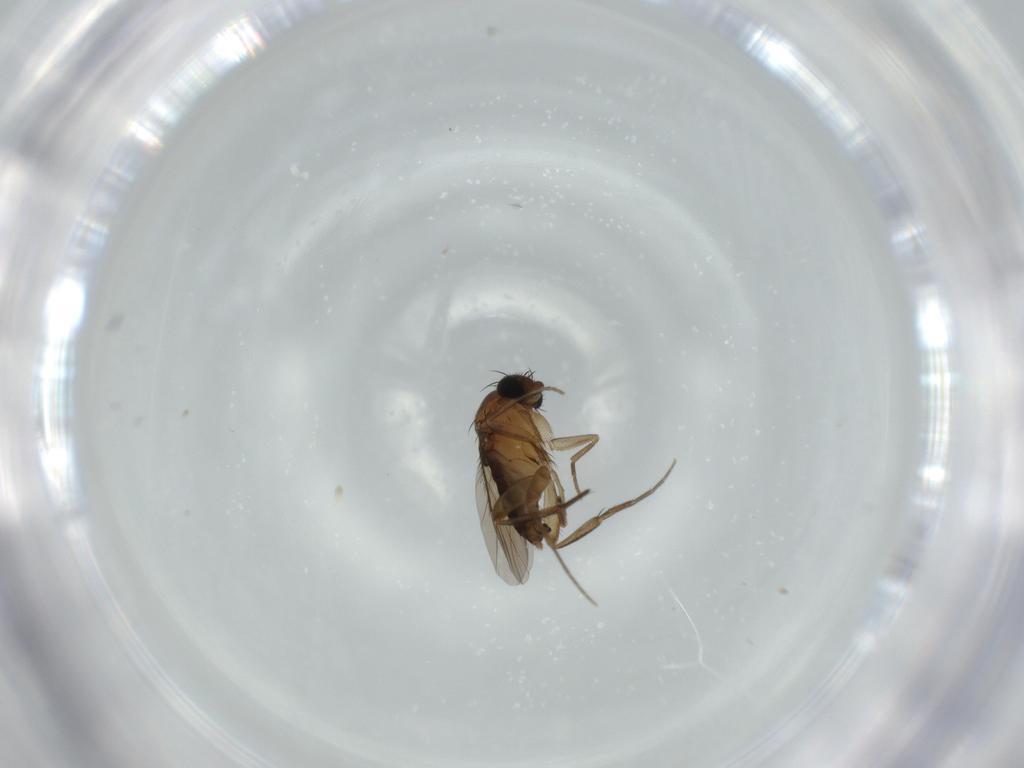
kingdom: Animalia
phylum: Arthropoda
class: Insecta
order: Diptera
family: Phoridae
